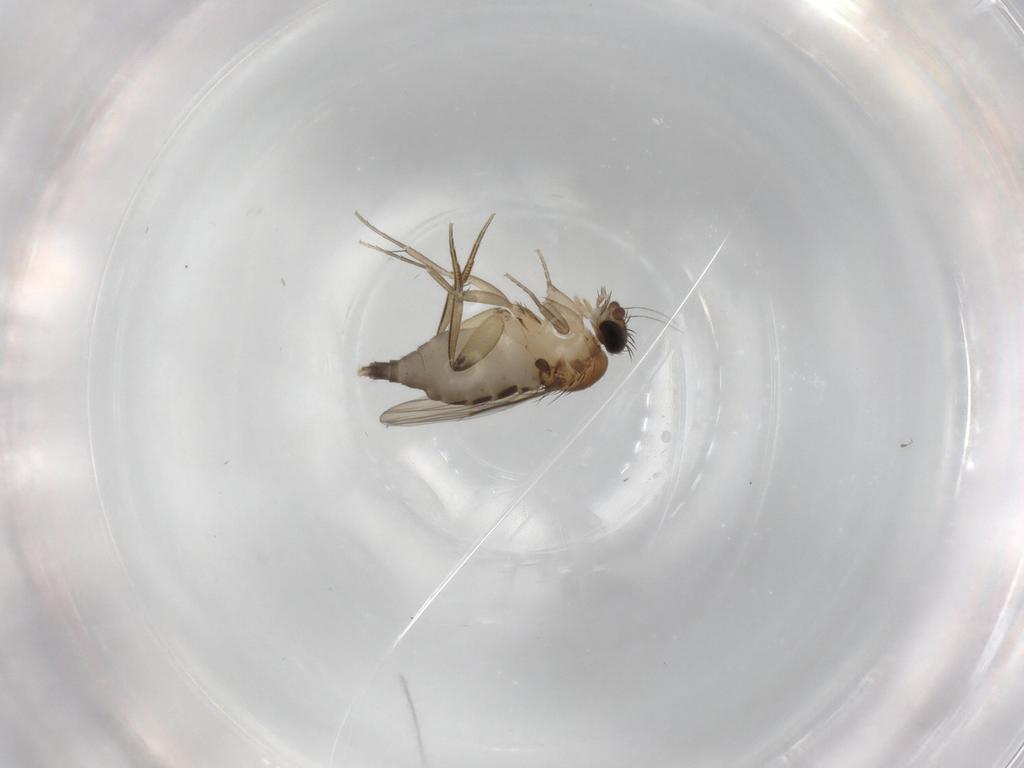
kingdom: Animalia
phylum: Arthropoda
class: Insecta
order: Diptera
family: Phoridae
